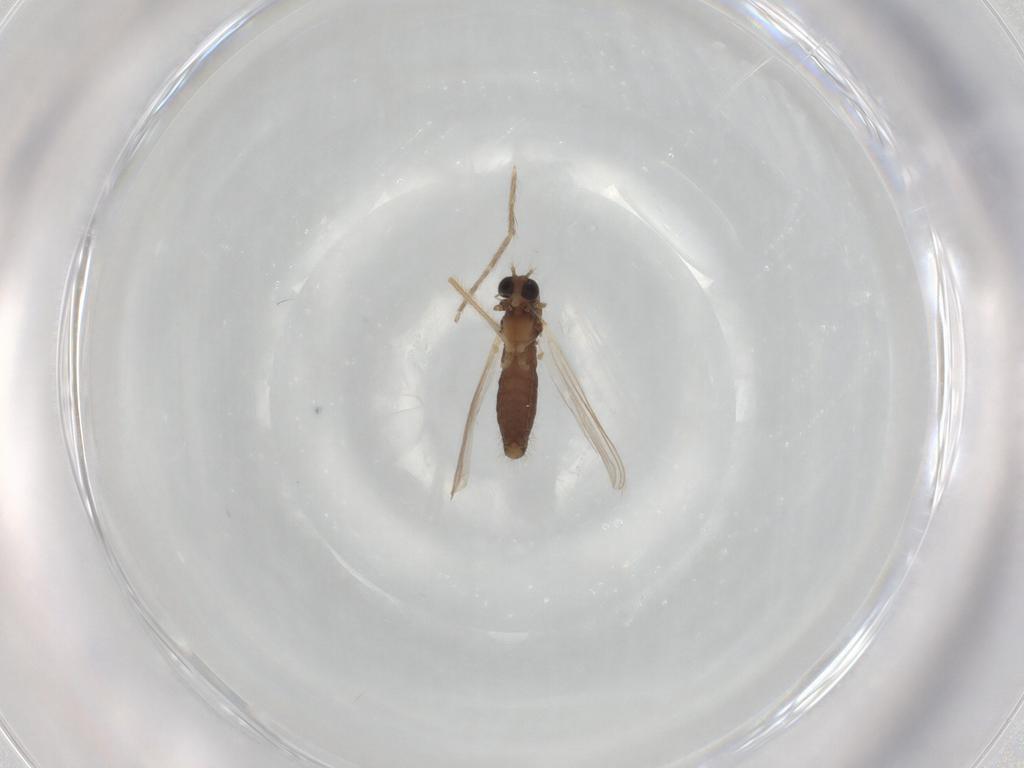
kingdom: Animalia
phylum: Arthropoda
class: Insecta
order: Diptera
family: Chironomidae
